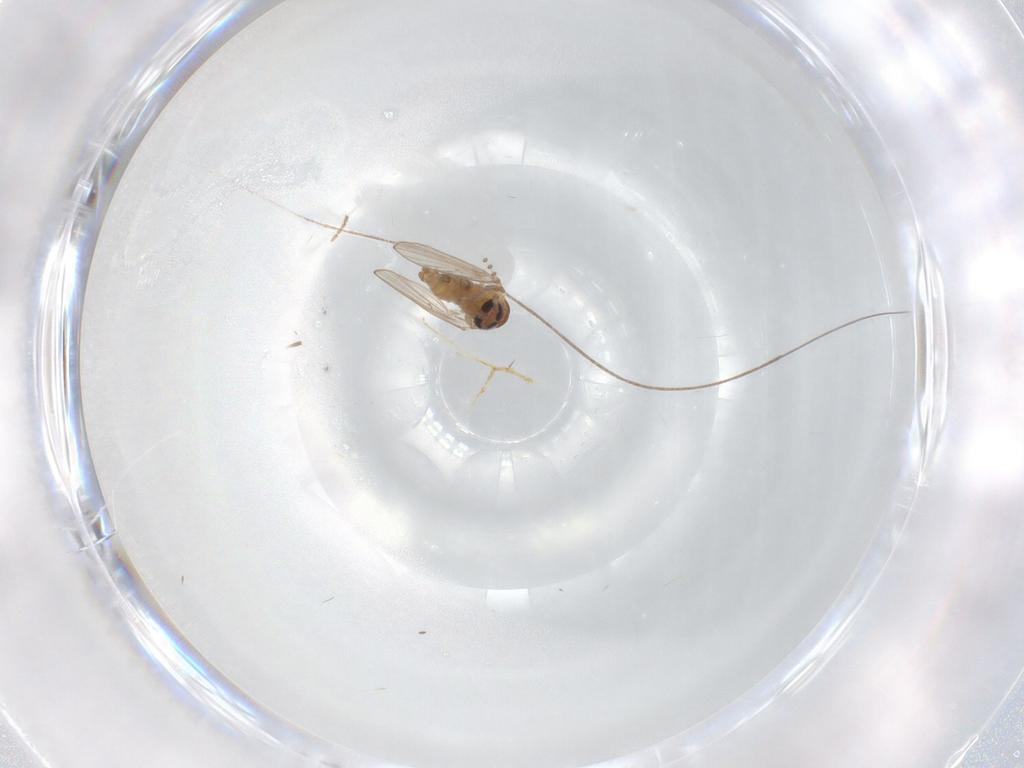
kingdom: Animalia
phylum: Arthropoda
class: Insecta
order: Diptera
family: Psychodidae
